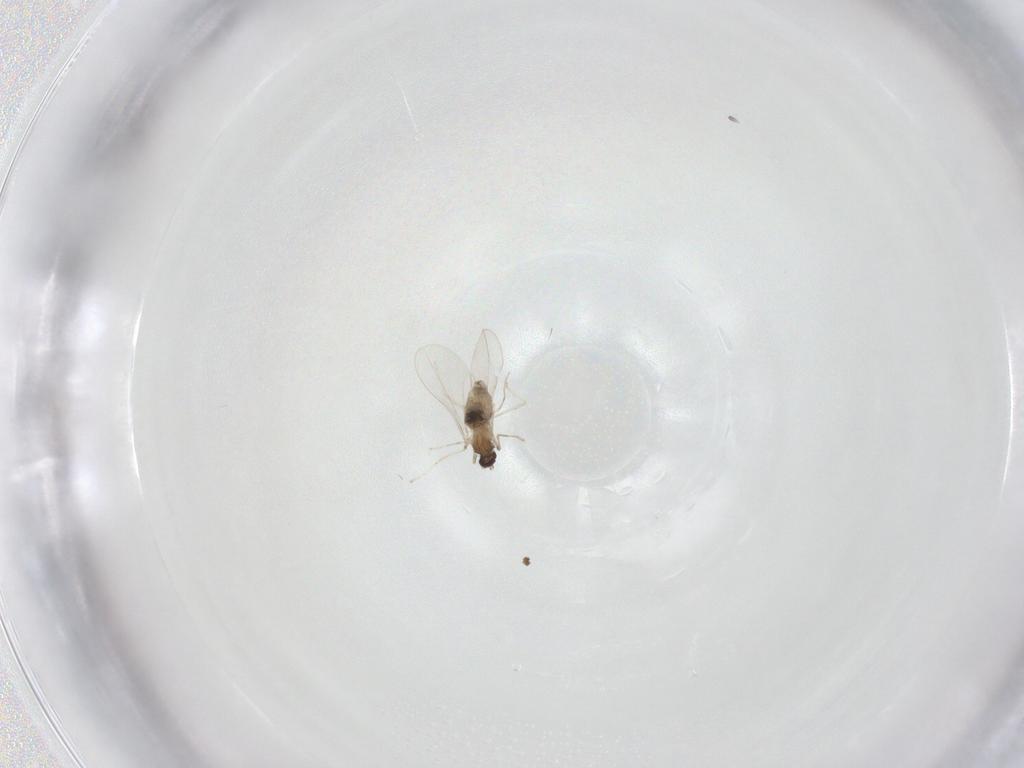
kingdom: Animalia
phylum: Arthropoda
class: Insecta
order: Diptera
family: Cecidomyiidae
